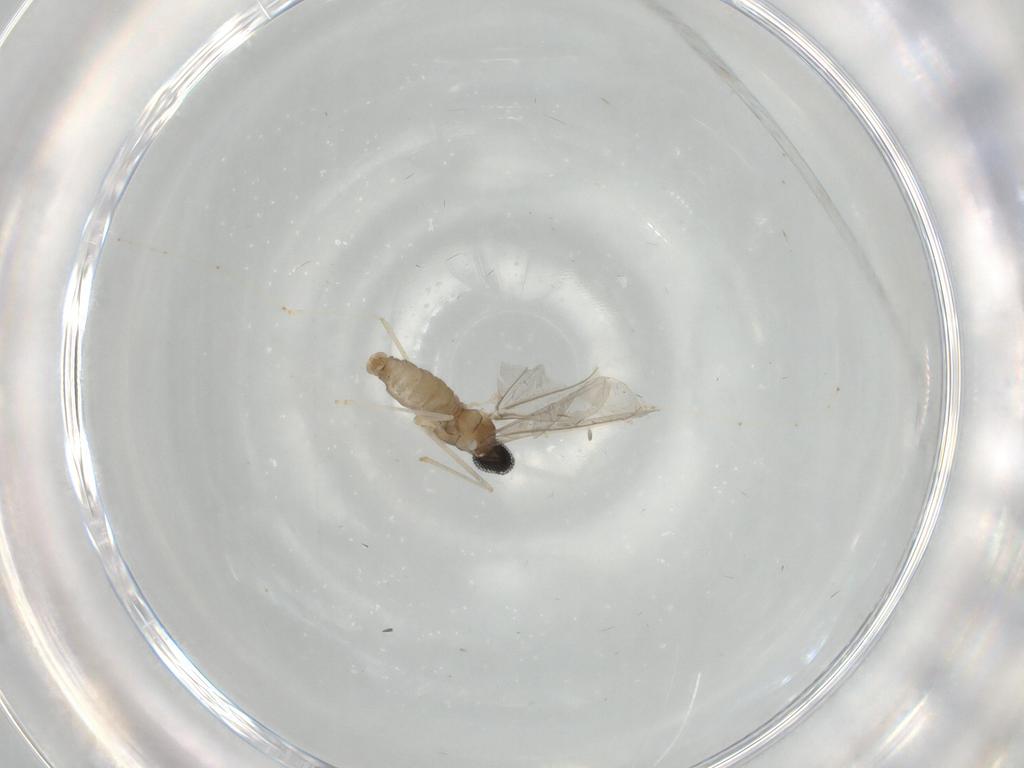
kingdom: Animalia
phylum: Arthropoda
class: Insecta
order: Diptera
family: Cecidomyiidae
